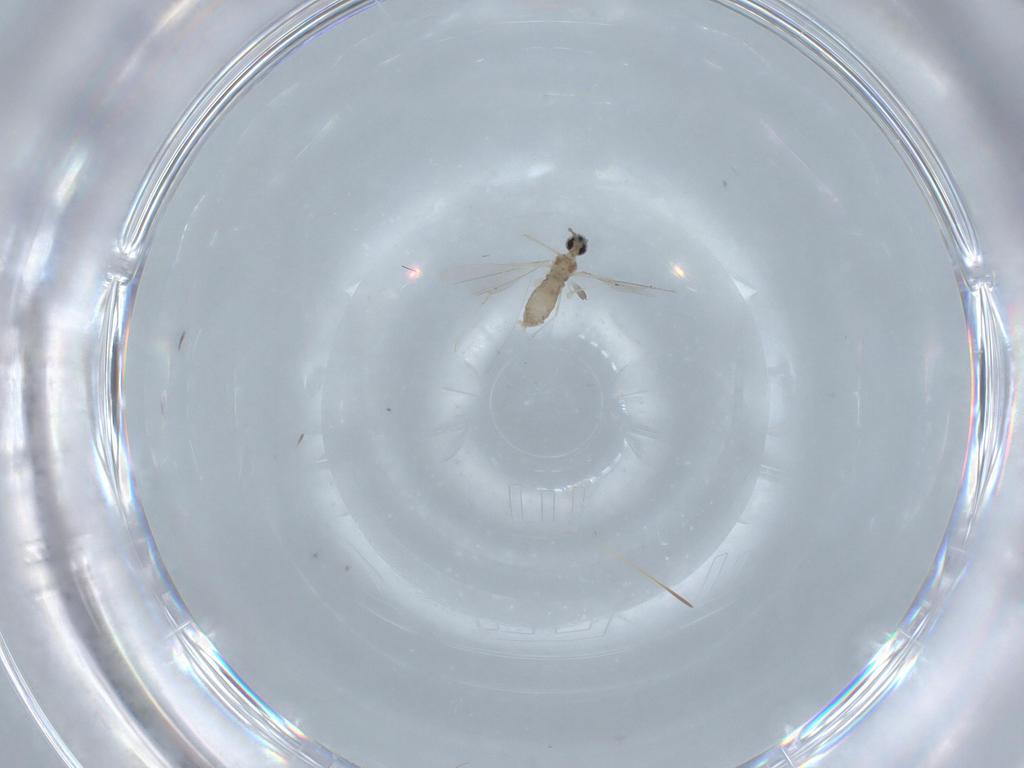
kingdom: Animalia
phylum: Arthropoda
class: Insecta
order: Diptera
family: Cecidomyiidae
